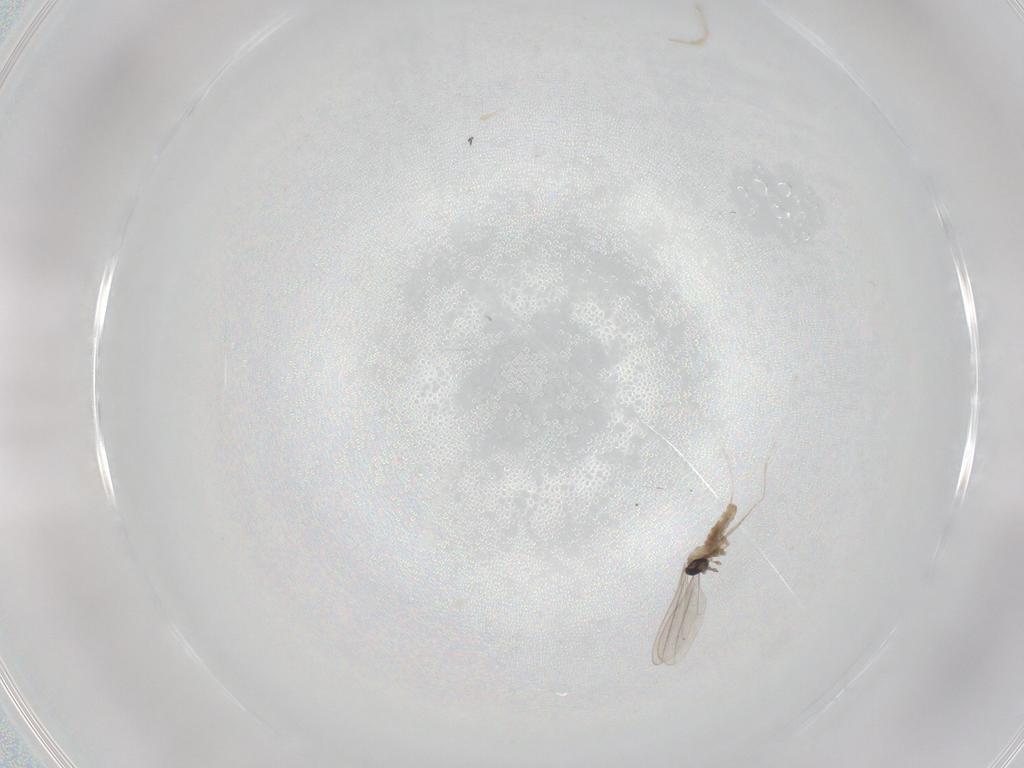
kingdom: Animalia
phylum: Arthropoda
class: Insecta
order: Diptera
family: Cecidomyiidae
